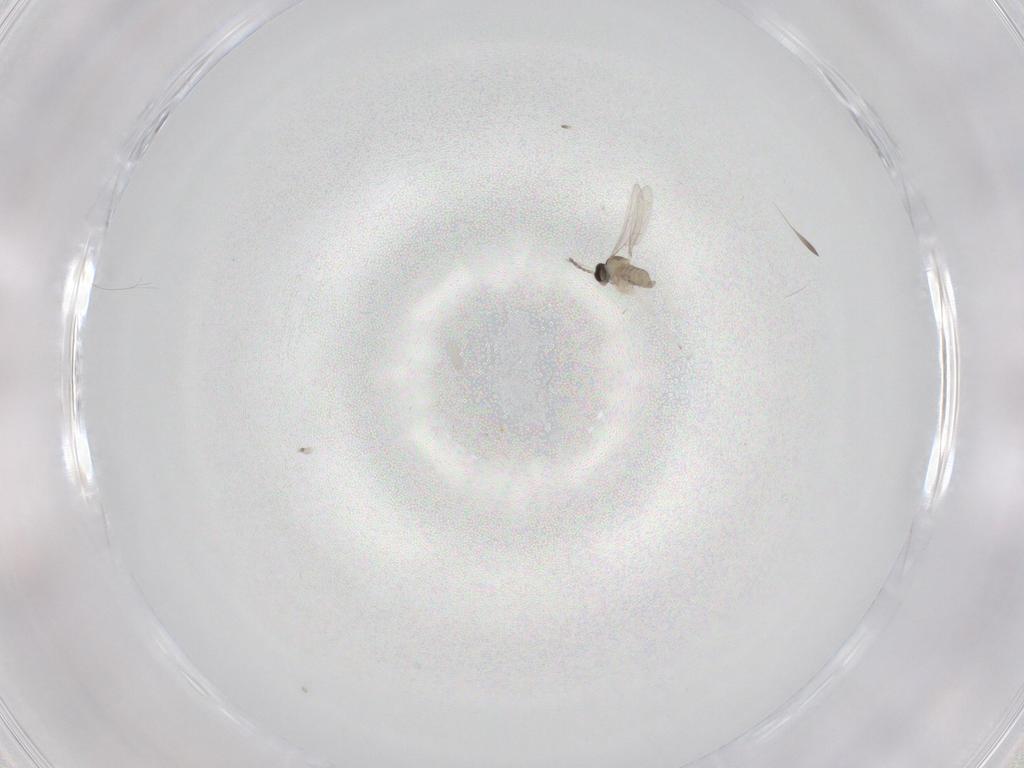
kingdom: Animalia
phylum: Arthropoda
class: Insecta
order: Diptera
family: Cecidomyiidae
